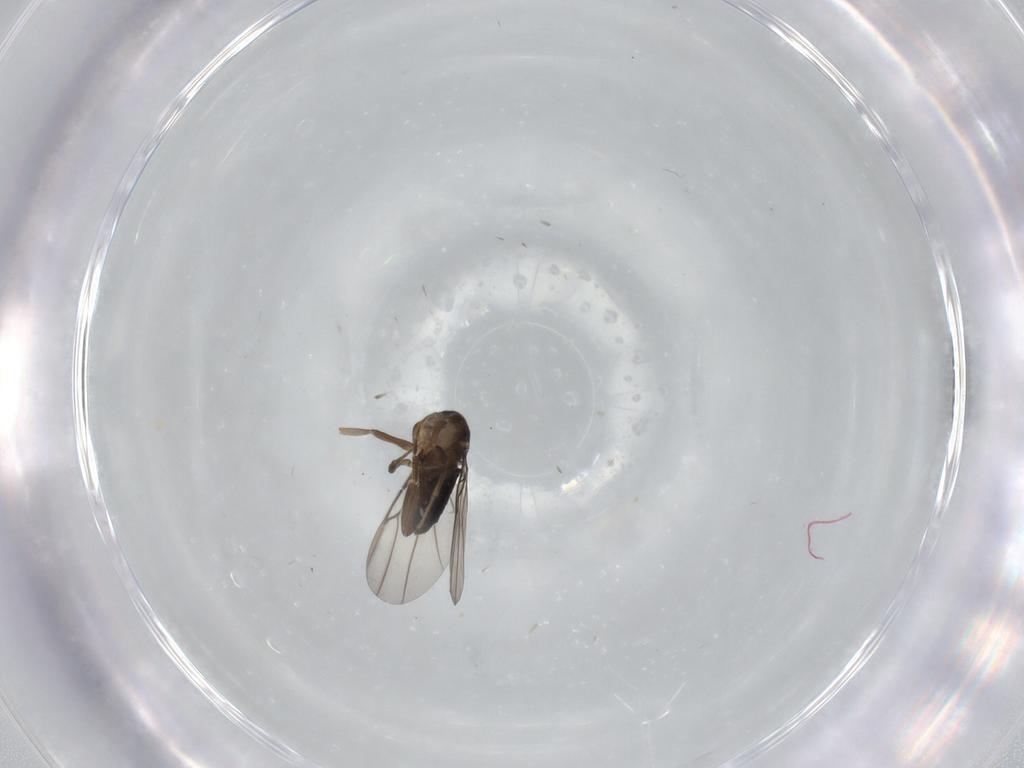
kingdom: Animalia
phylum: Arthropoda
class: Insecta
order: Diptera
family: Phoridae
